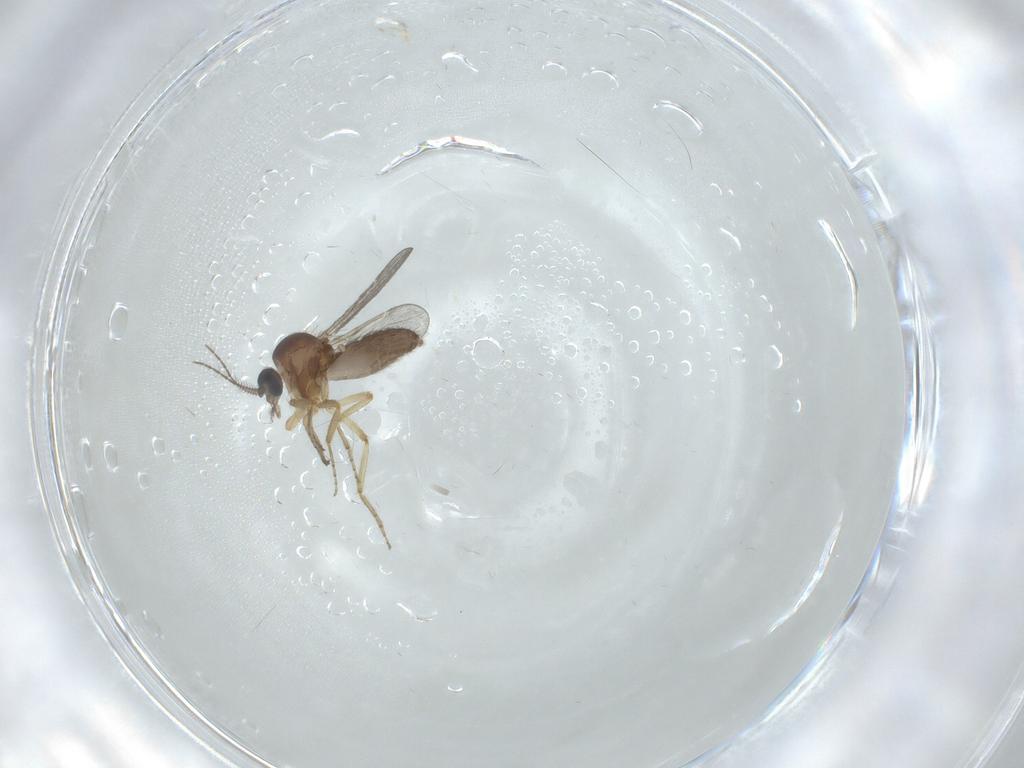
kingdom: Animalia
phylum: Arthropoda
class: Insecta
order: Diptera
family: Ceratopogonidae
